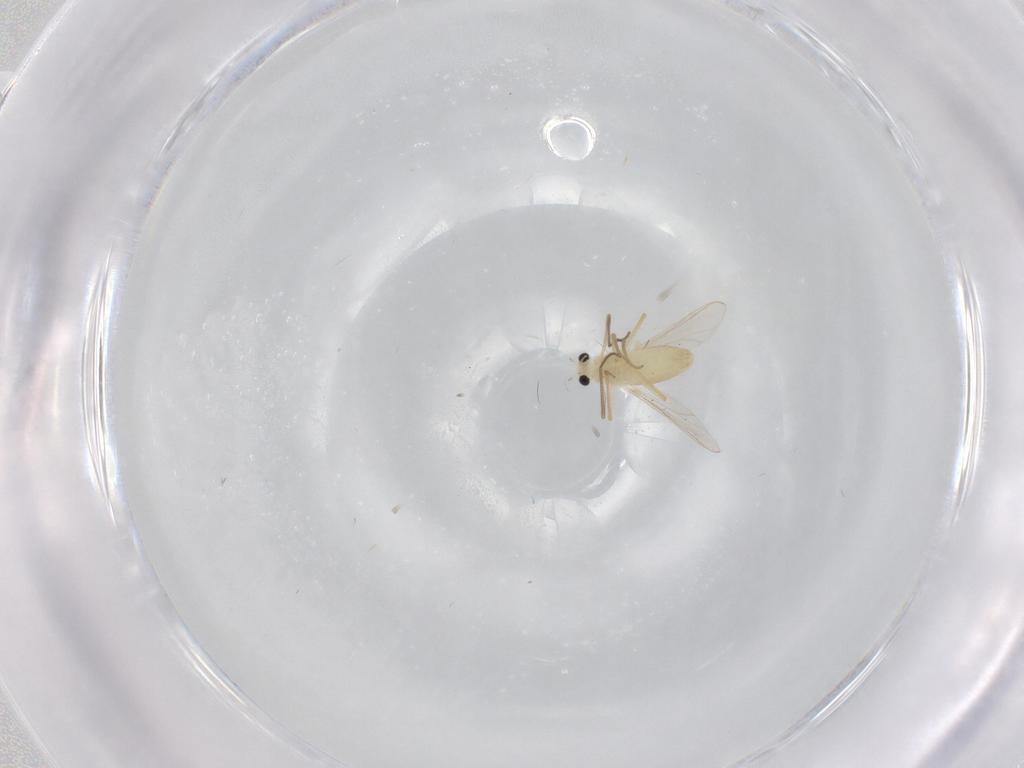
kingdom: Animalia
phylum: Arthropoda
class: Insecta
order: Diptera
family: Chironomidae
